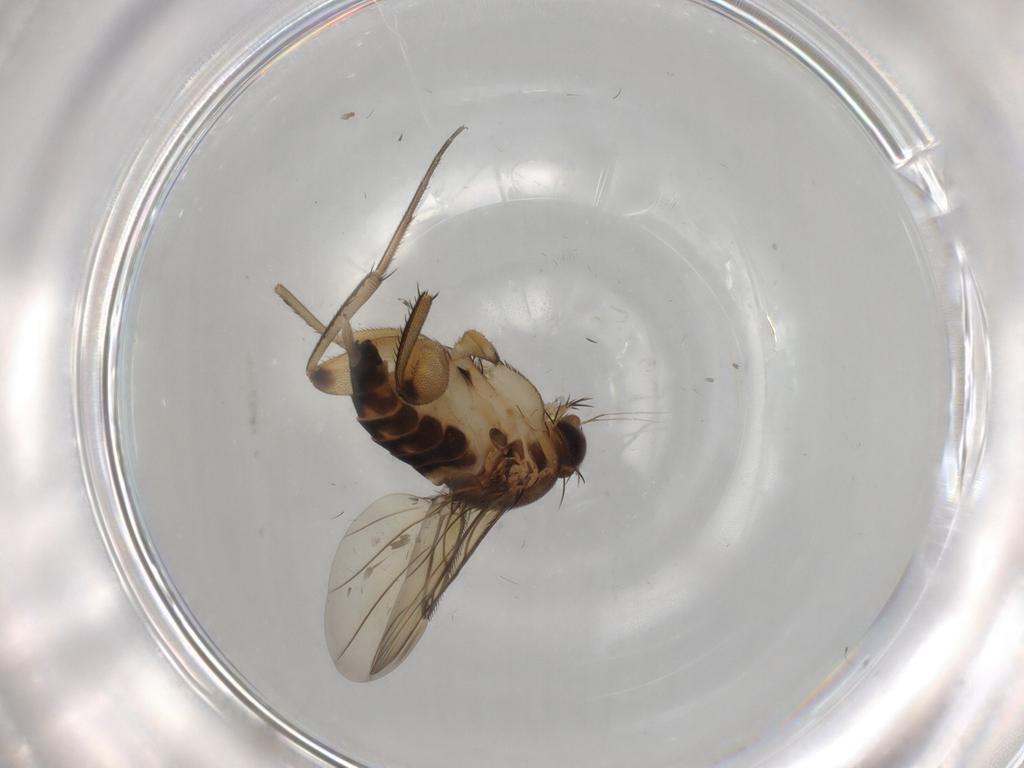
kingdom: Animalia
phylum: Arthropoda
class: Insecta
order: Diptera
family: Phoridae
